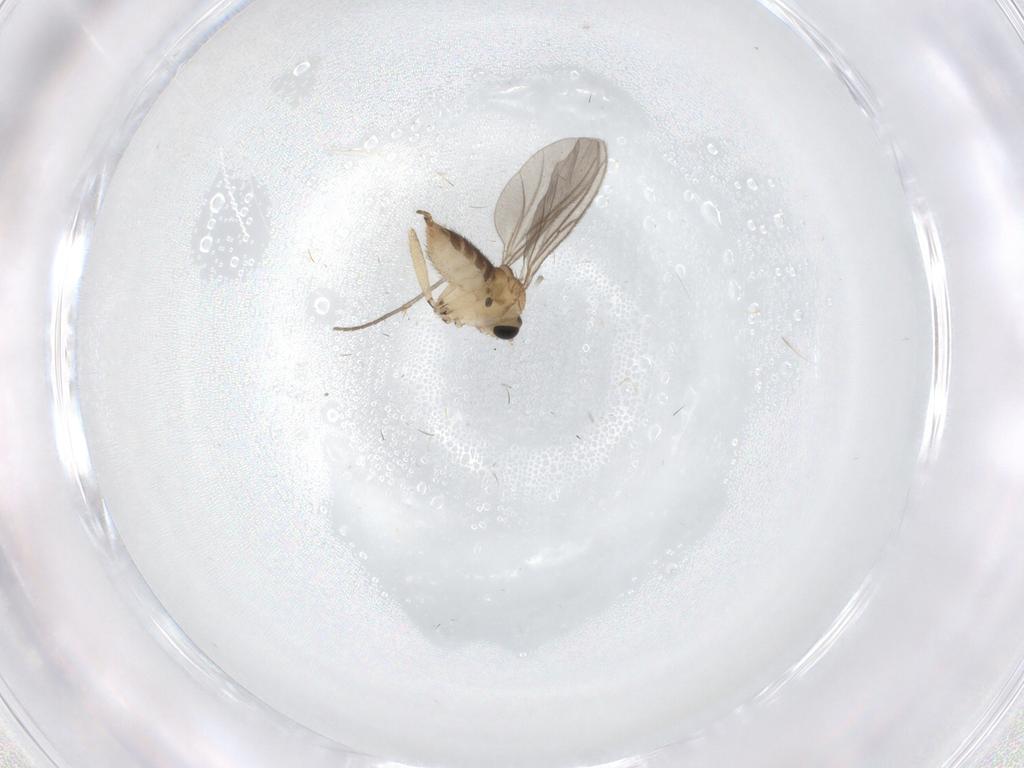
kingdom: Animalia
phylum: Arthropoda
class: Insecta
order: Diptera
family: Sciaridae
